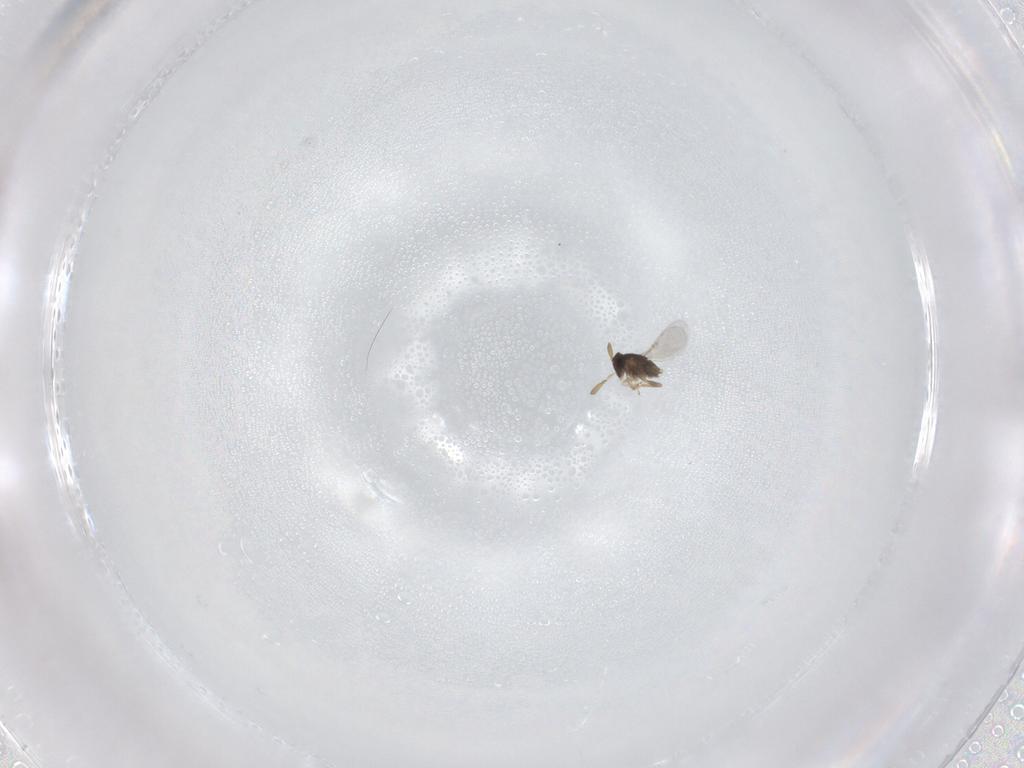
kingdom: Animalia
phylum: Arthropoda
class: Insecta
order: Hymenoptera
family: Encyrtidae
